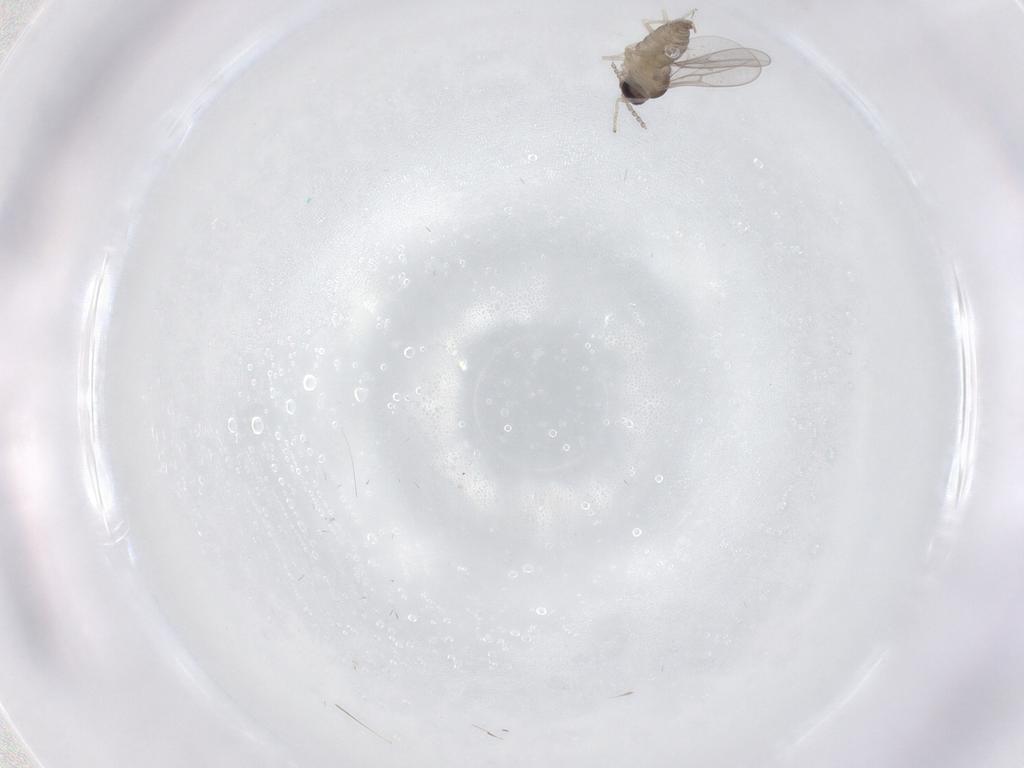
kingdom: Animalia
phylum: Arthropoda
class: Insecta
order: Diptera
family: Cecidomyiidae
